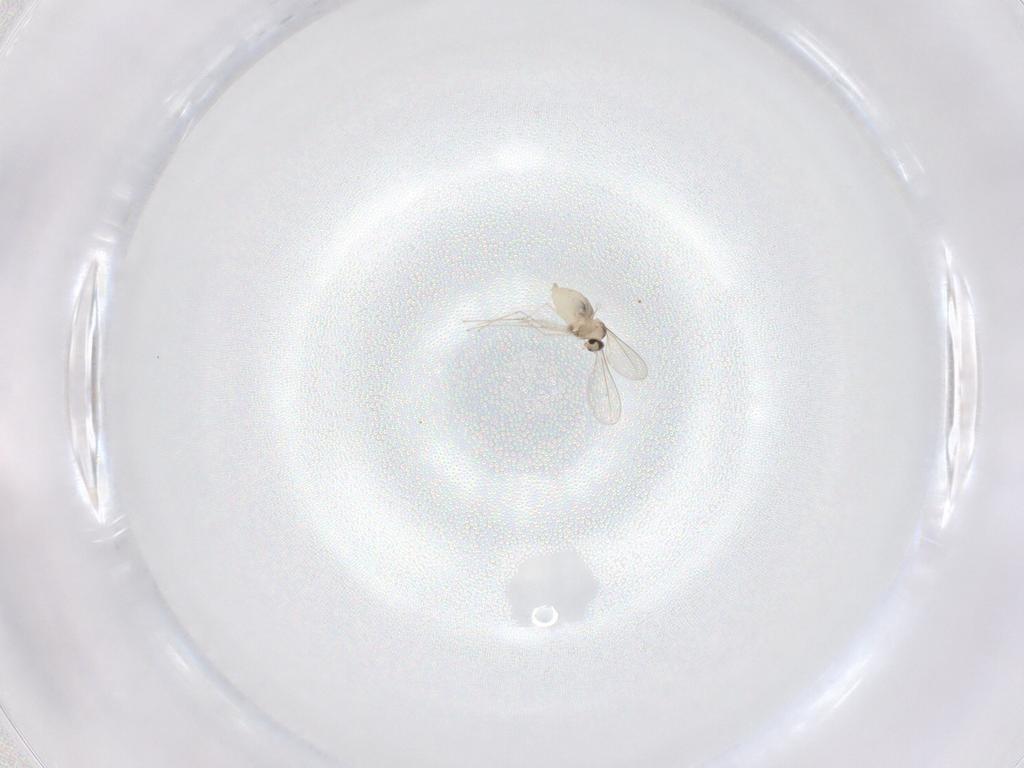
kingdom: Animalia
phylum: Arthropoda
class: Insecta
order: Diptera
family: Cecidomyiidae
